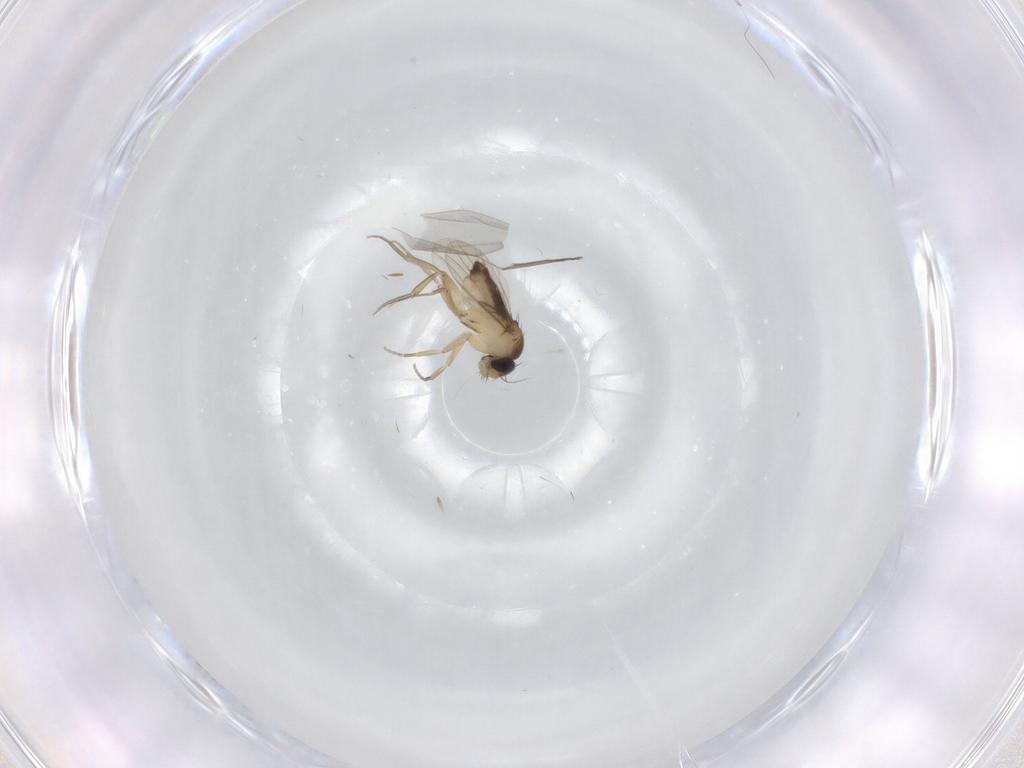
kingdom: Animalia
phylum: Arthropoda
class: Insecta
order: Diptera
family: Phoridae
